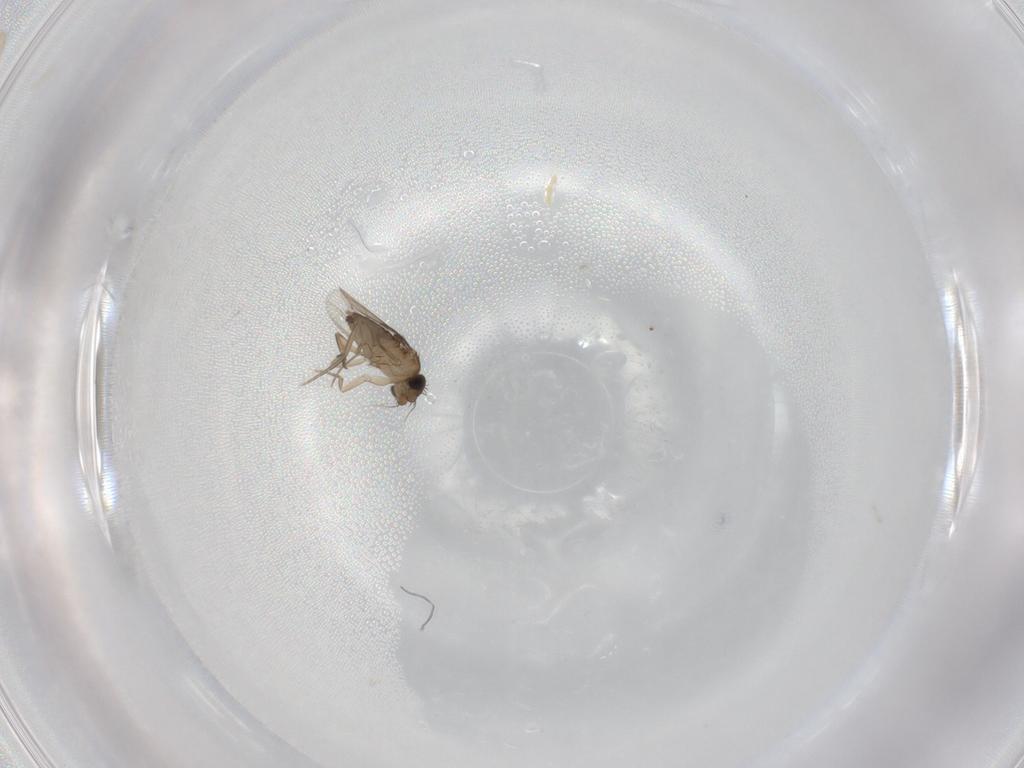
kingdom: Animalia
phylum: Arthropoda
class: Insecta
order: Diptera
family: Phoridae
